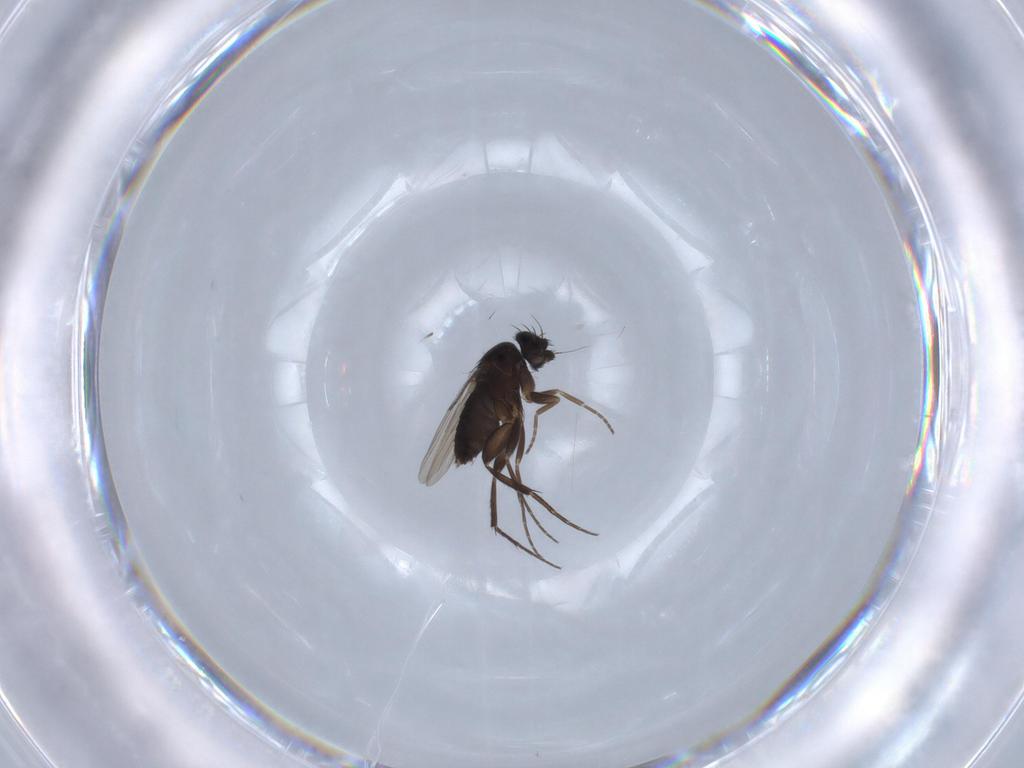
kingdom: Animalia
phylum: Arthropoda
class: Insecta
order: Diptera
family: Phoridae
